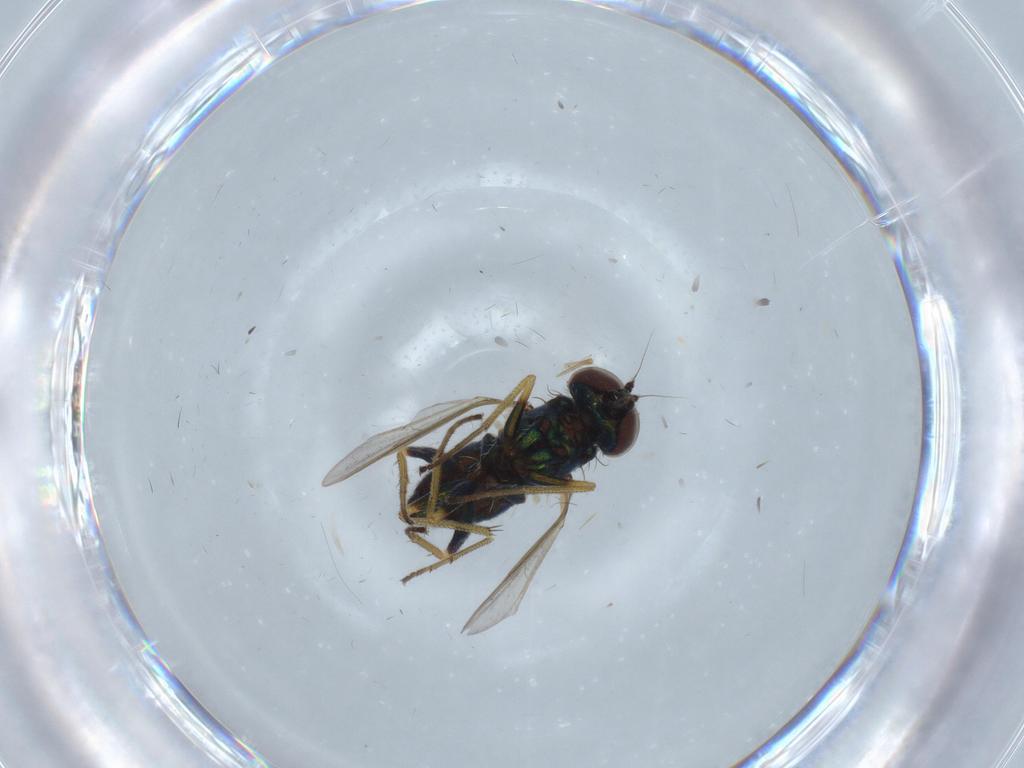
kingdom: Animalia
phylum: Arthropoda
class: Insecta
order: Diptera
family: Dolichopodidae
